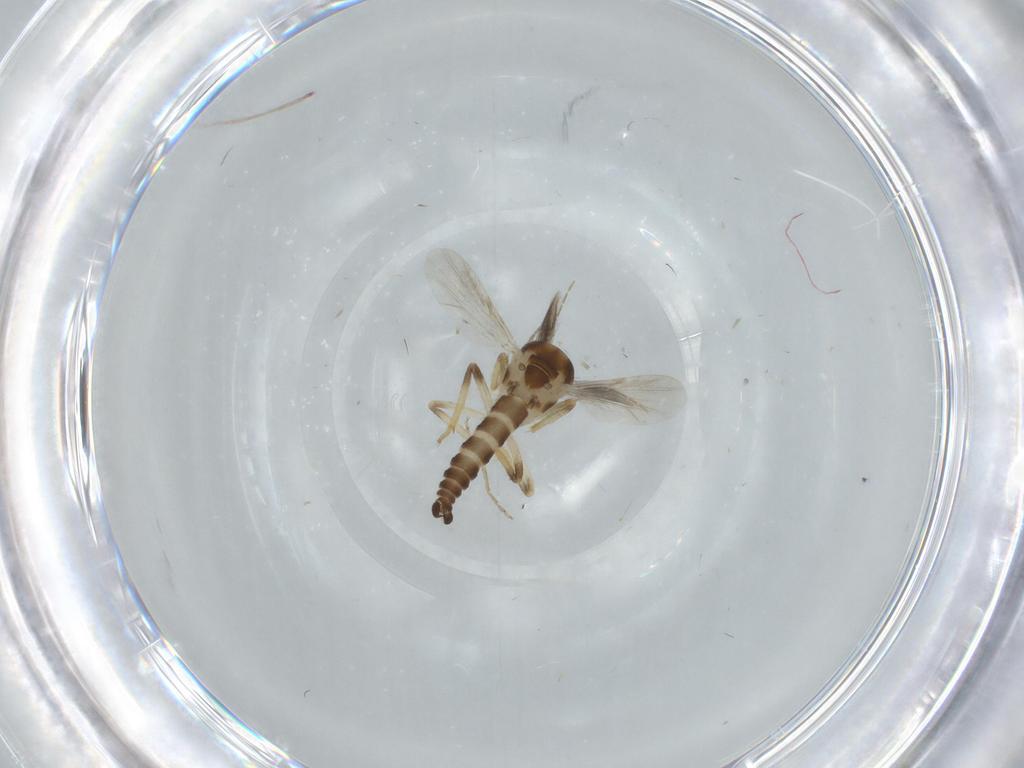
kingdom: Animalia
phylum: Arthropoda
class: Insecta
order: Diptera
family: Ceratopogonidae
